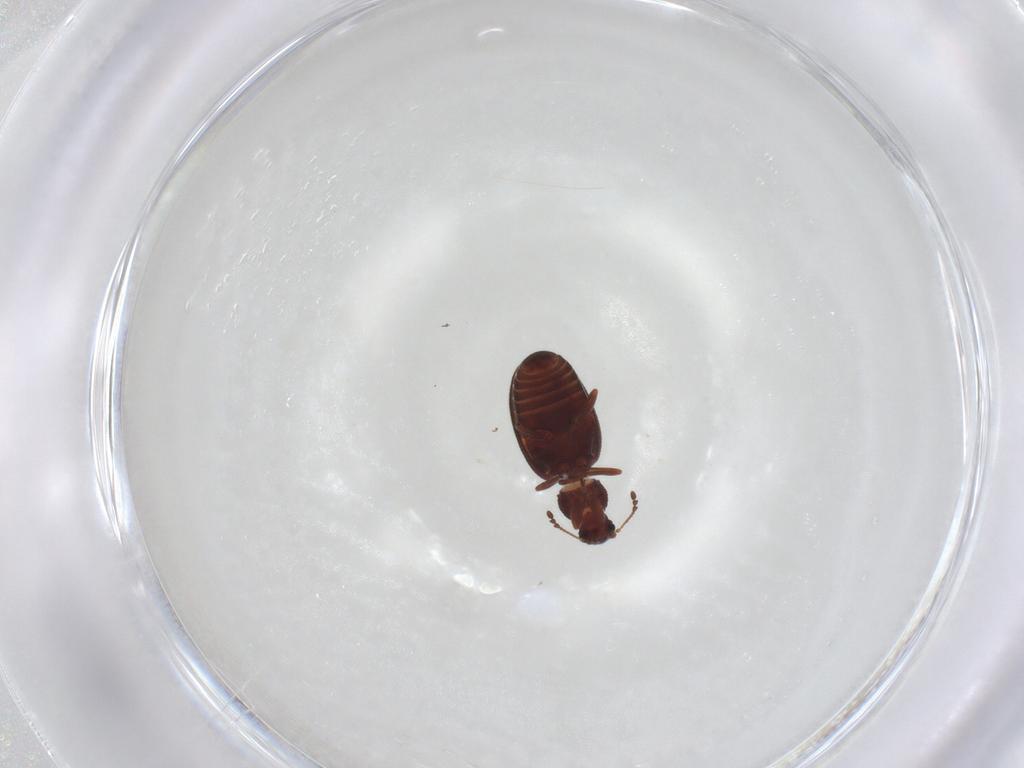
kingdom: Animalia
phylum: Arthropoda
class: Insecta
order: Coleoptera
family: Latridiidae
